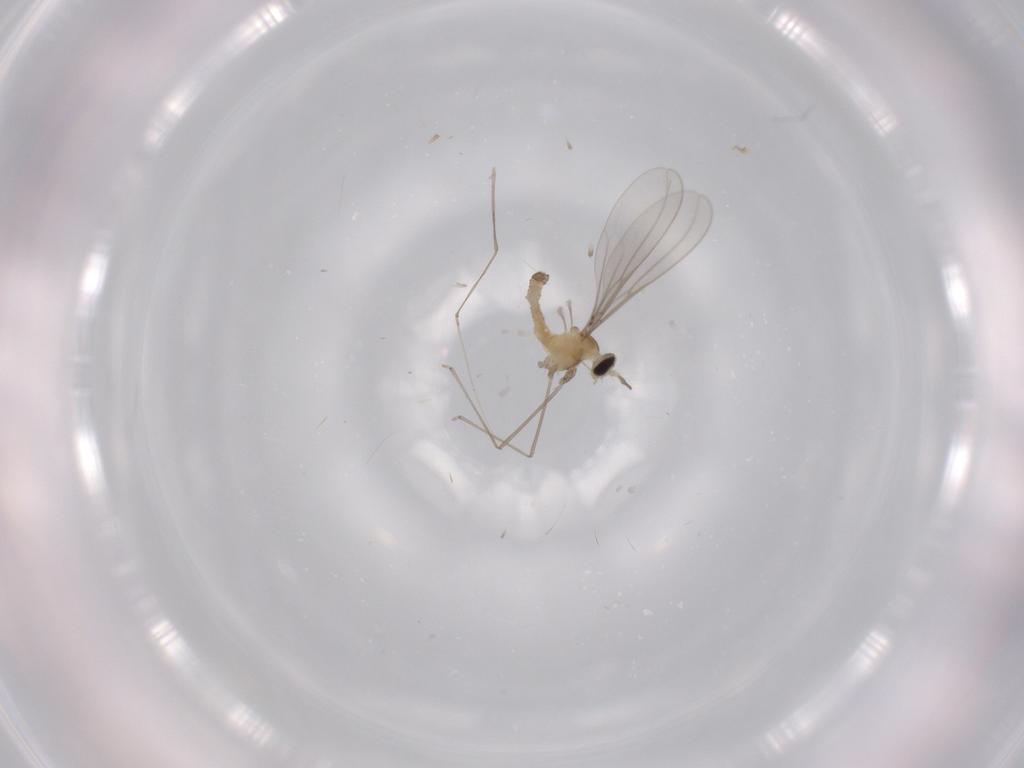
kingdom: Animalia
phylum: Arthropoda
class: Insecta
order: Diptera
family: Cecidomyiidae
